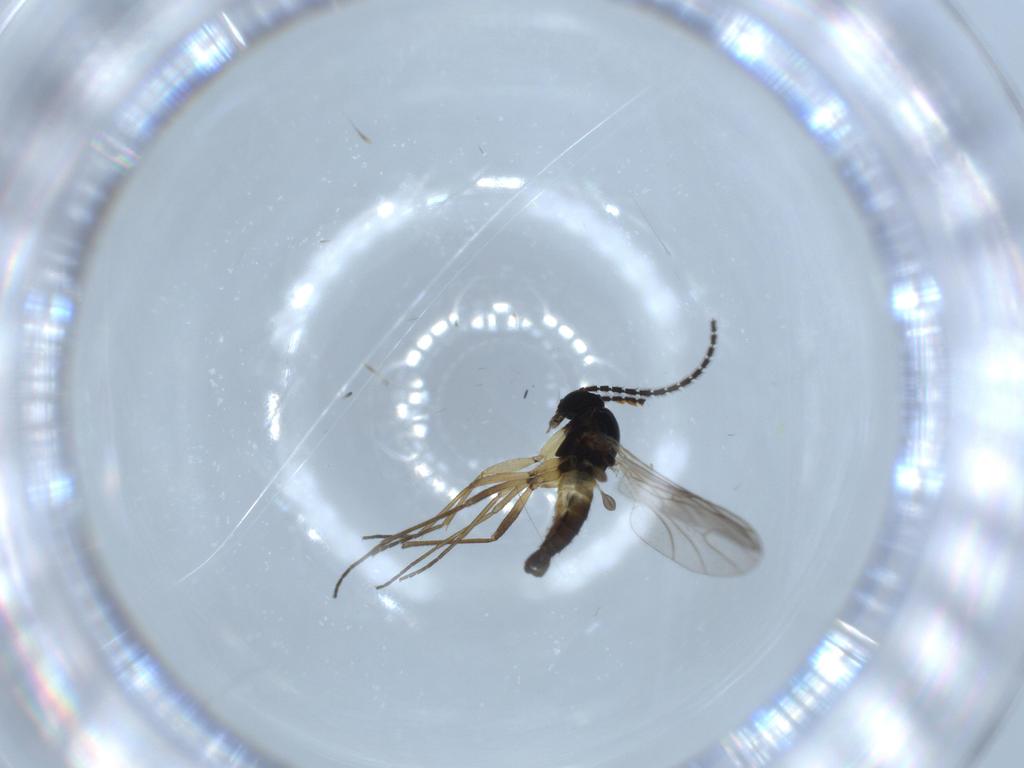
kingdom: Animalia
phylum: Arthropoda
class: Insecta
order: Diptera
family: Sciaridae
